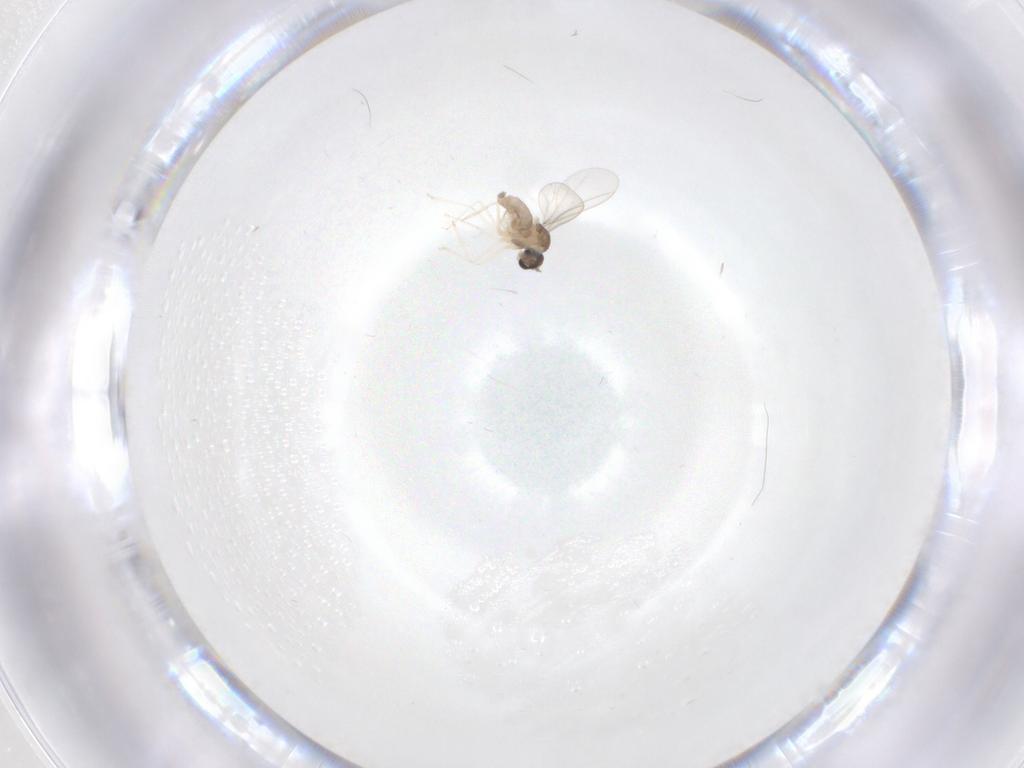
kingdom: Animalia
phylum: Arthropoda
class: Insecta
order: Diptera
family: Cecidomyiidae
